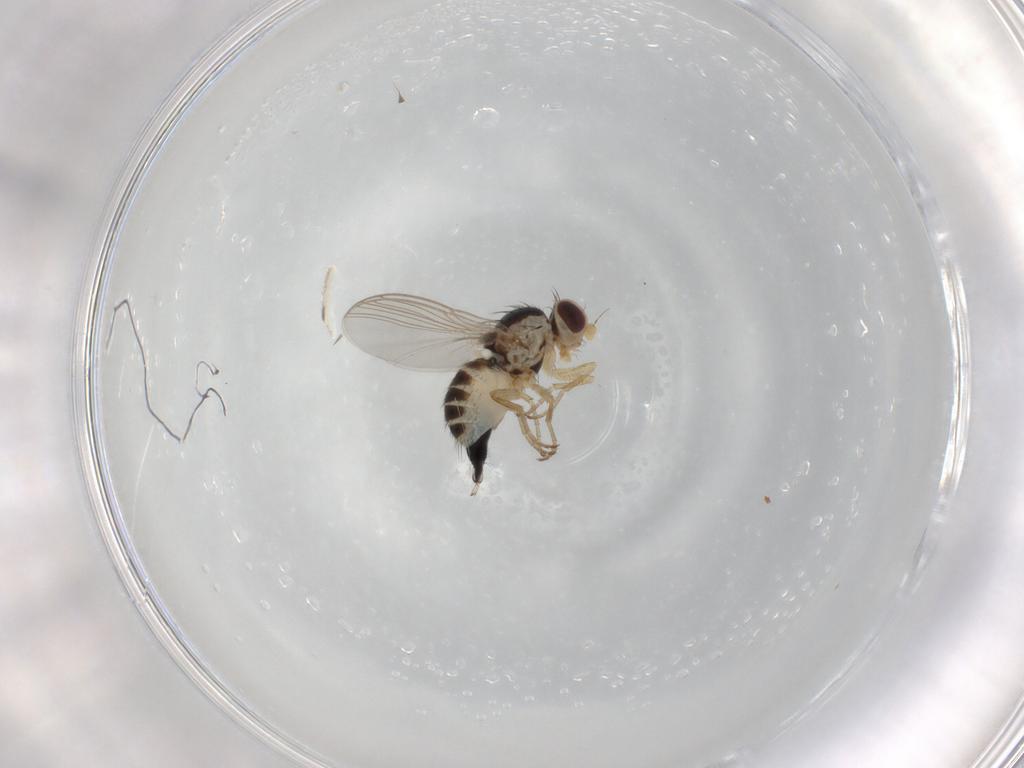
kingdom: Animalia
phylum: Arthropoda
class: Insecta
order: Diptera
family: Agromyzidae
